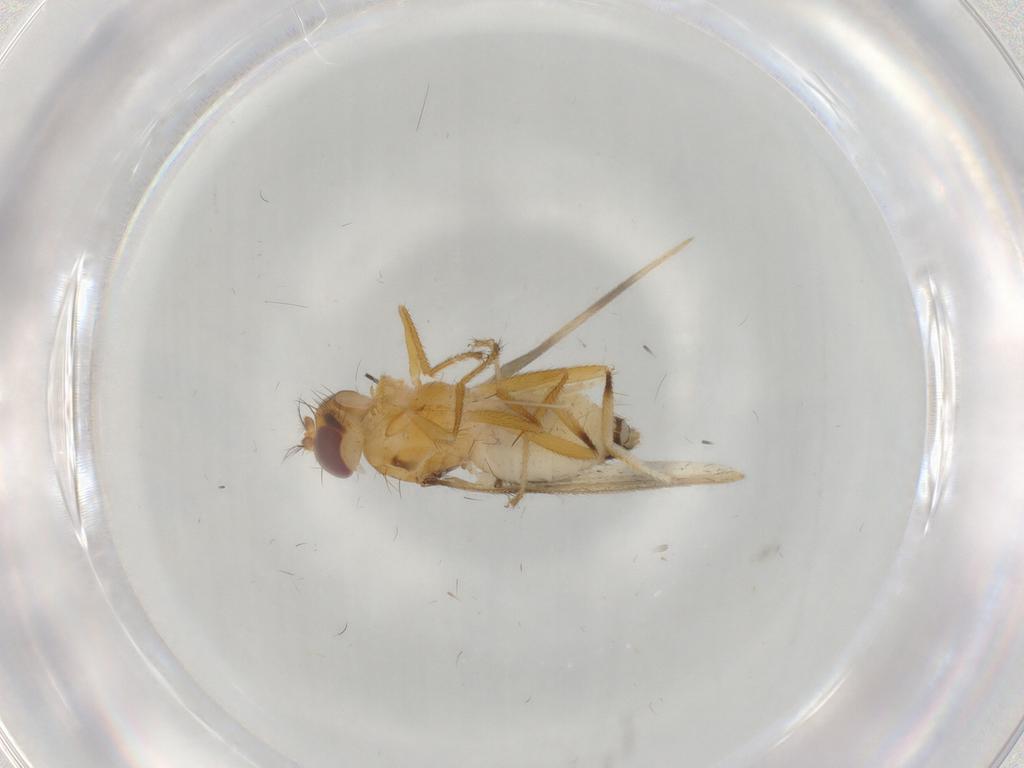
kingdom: Animalia
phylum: Arthropoda
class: Insecta
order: Diptera
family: Periscelididae
